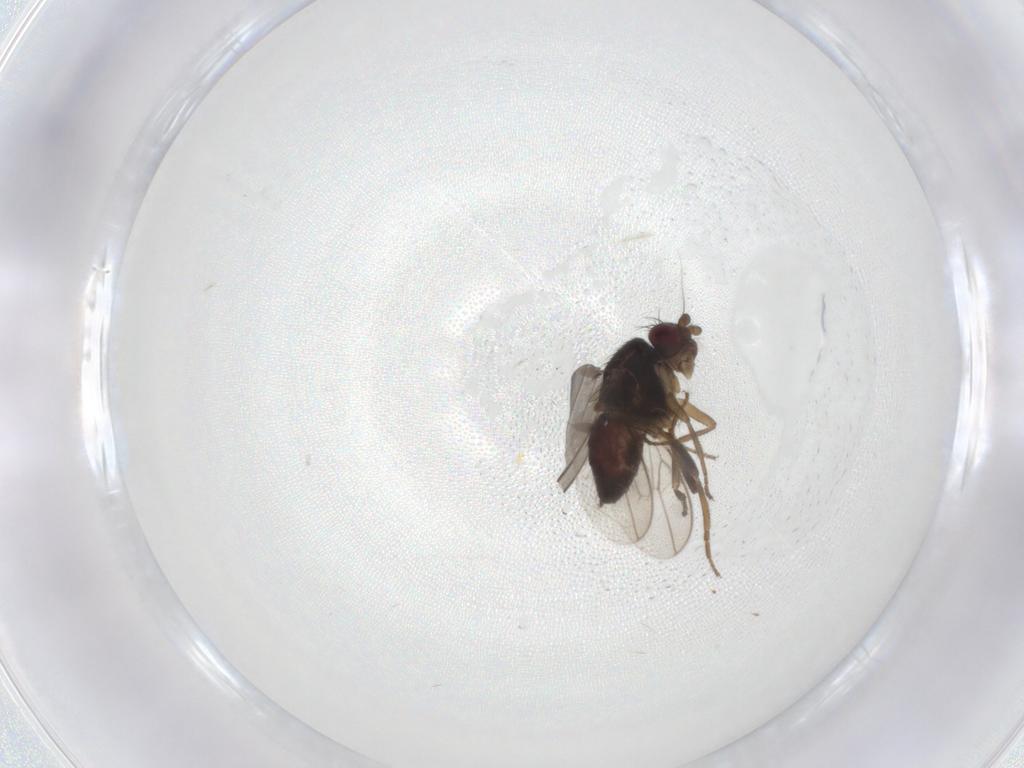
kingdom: Animalia
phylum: Arthropoda
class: Insecta
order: Diptera
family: Sphaeroceridae
